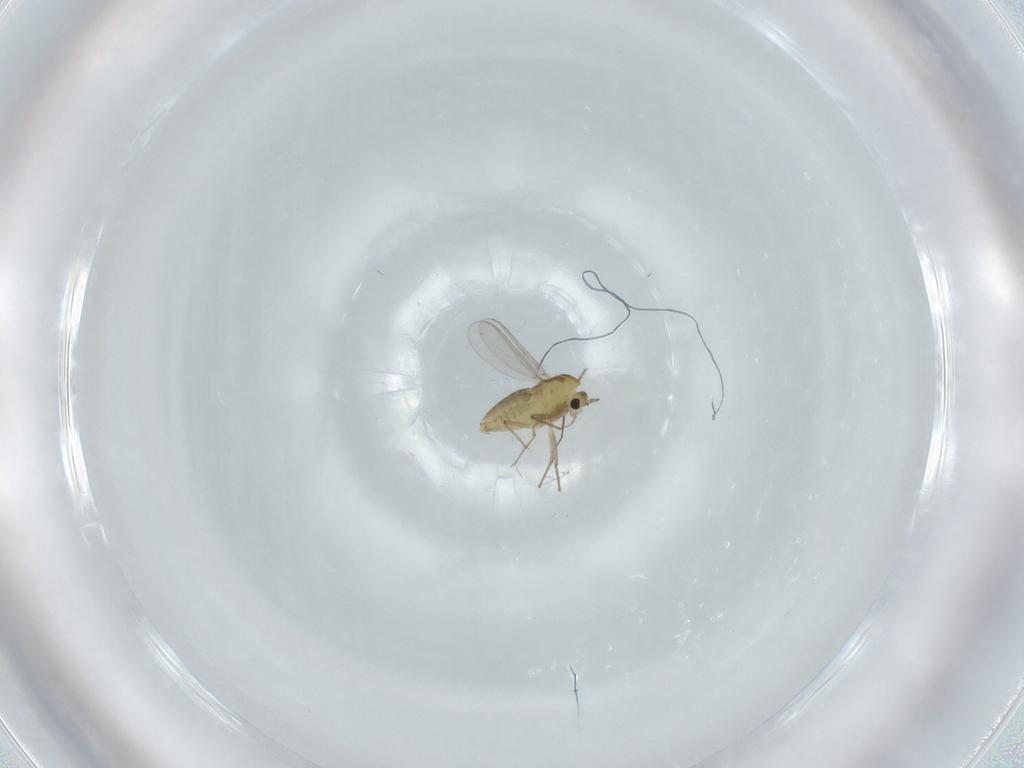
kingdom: Animalia
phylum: Arthropoda
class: Insecta
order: Diptera
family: Chironomidae
